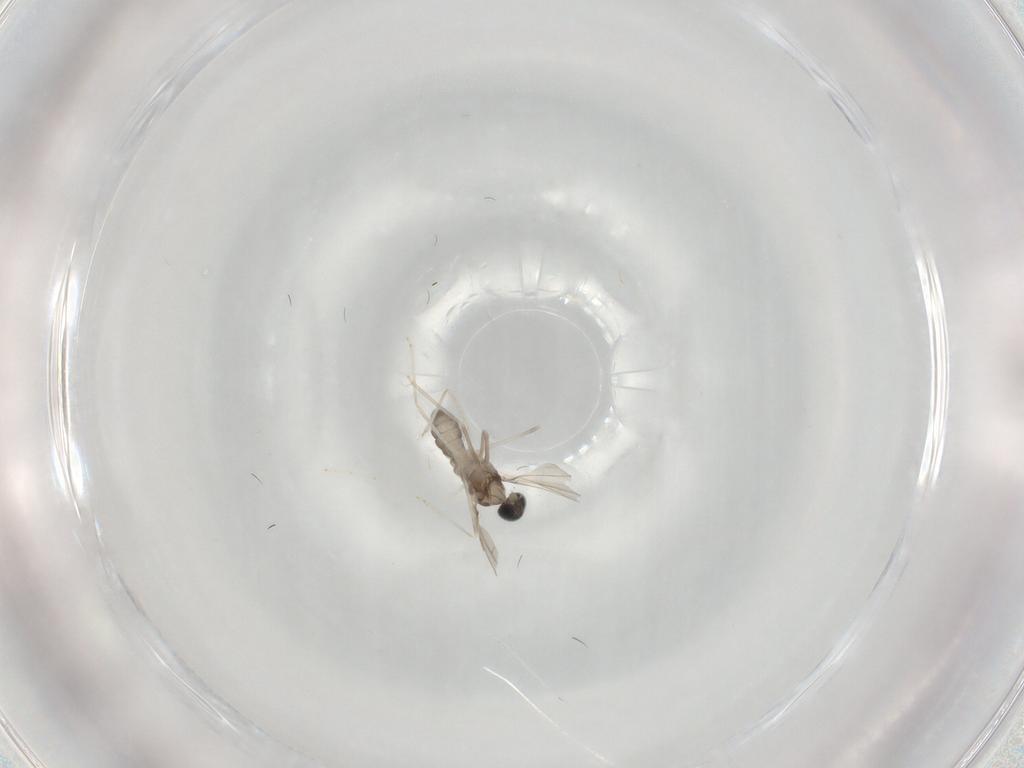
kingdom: Animalia
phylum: Arthropoda
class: Insecta
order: Diptera
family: Cecidomyiidae
